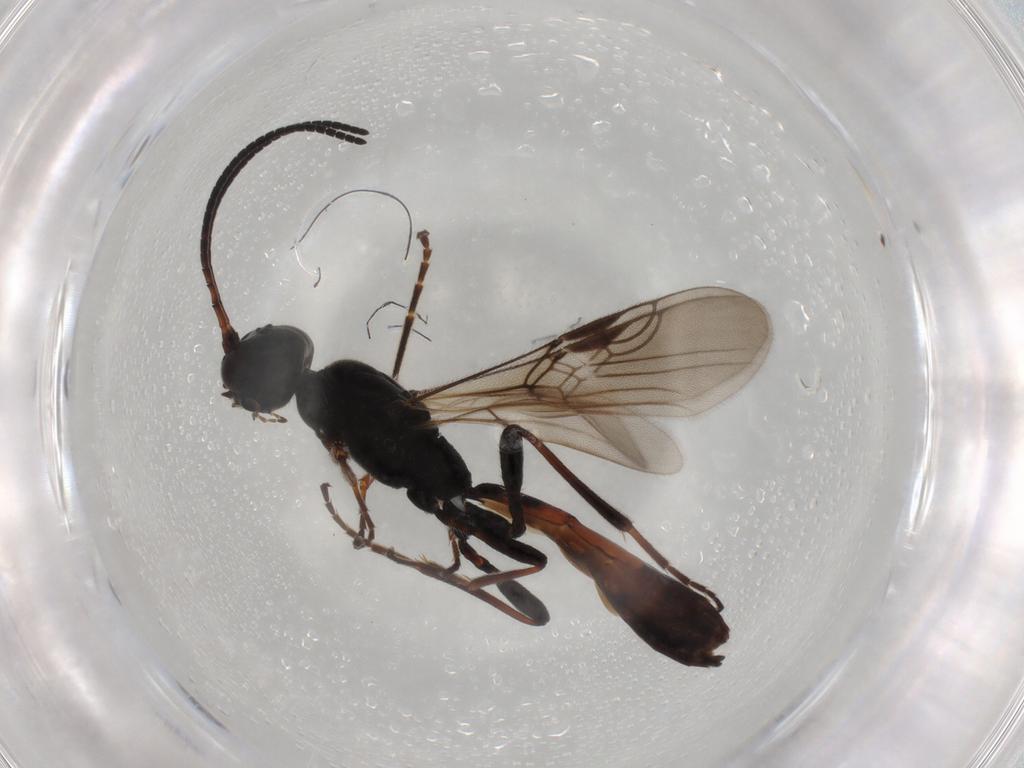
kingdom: Animalia
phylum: Arthropoda
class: Insecta
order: Hymenoptera
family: Braconidae
